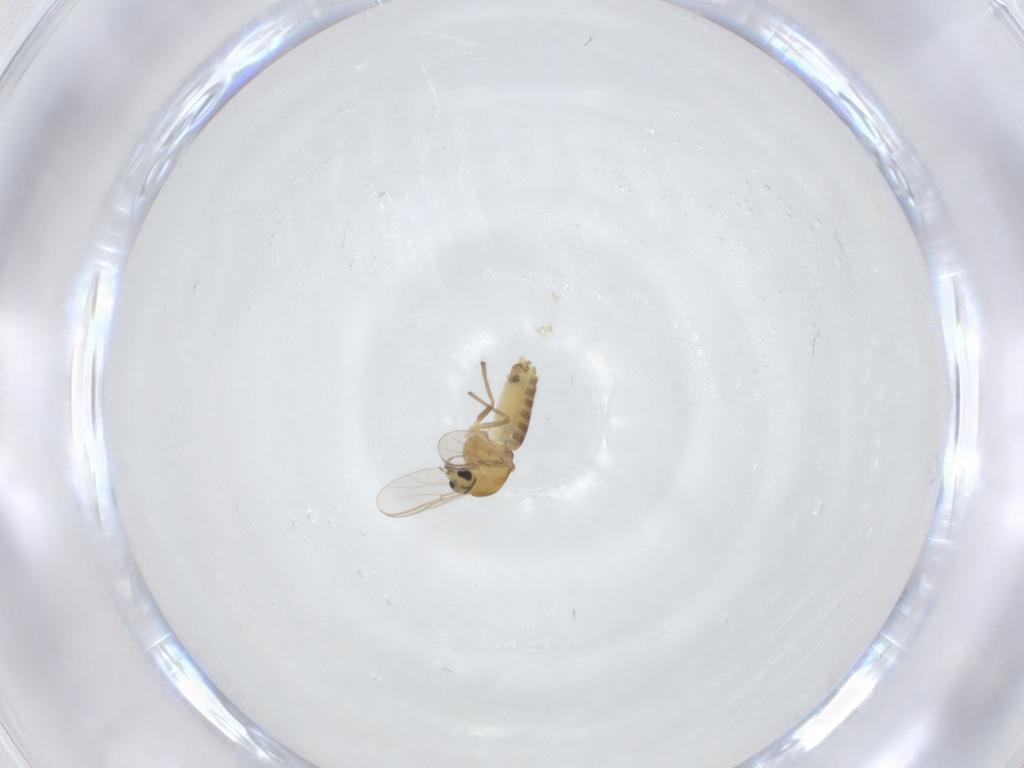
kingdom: Animalia
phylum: Arthropoda
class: Insecta
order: Diptera
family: Chironomidae
